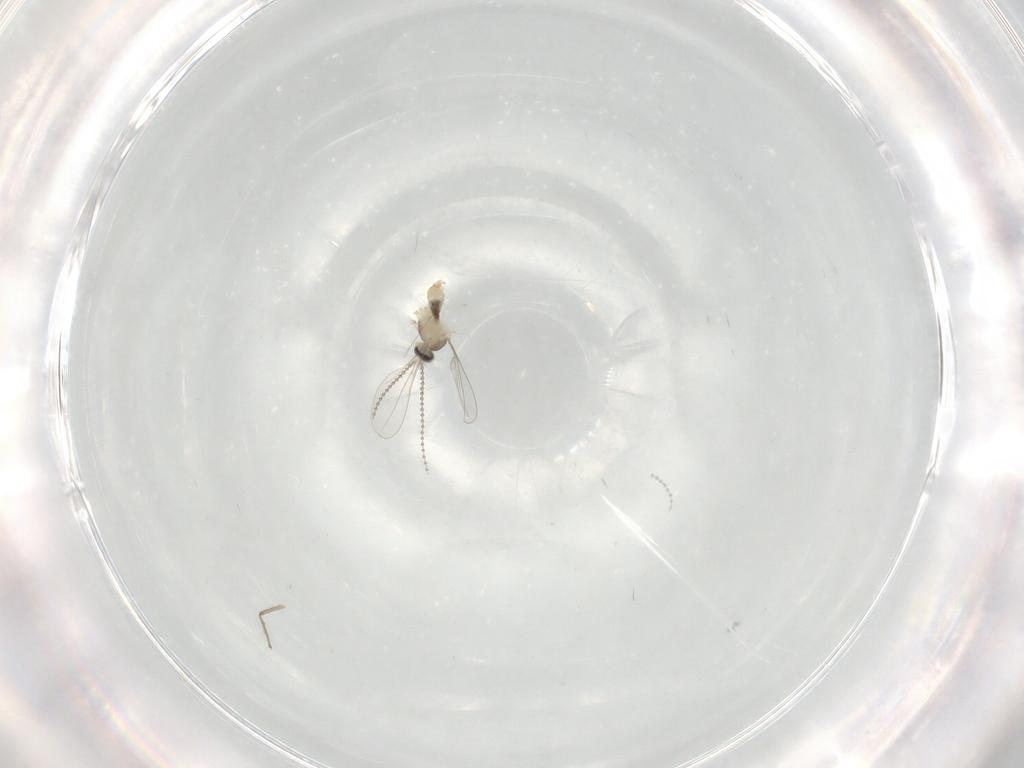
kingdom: Animalia
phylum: Arthropoda
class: Insecta
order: Diptera
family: Cecidomyiidae
